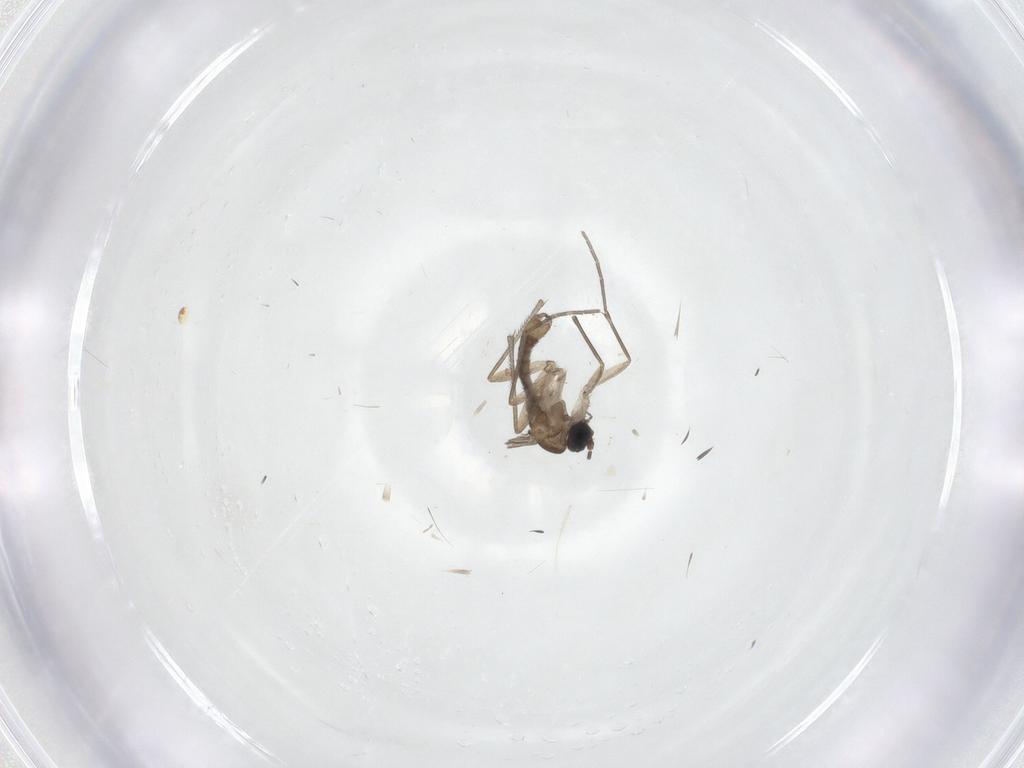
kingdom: Animalia
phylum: Arthropoda
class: Insecta
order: Diptera
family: Sciaridae
